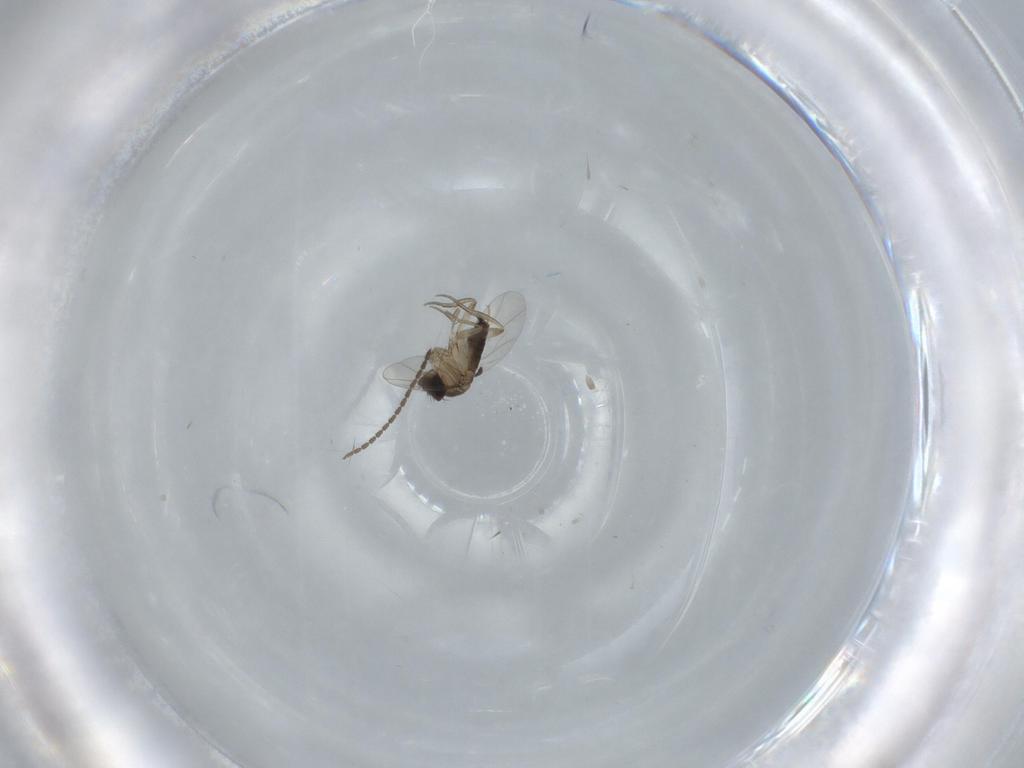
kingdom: Animalia
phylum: Arthropoda
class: Insecta
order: Diptera
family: Phoridae
